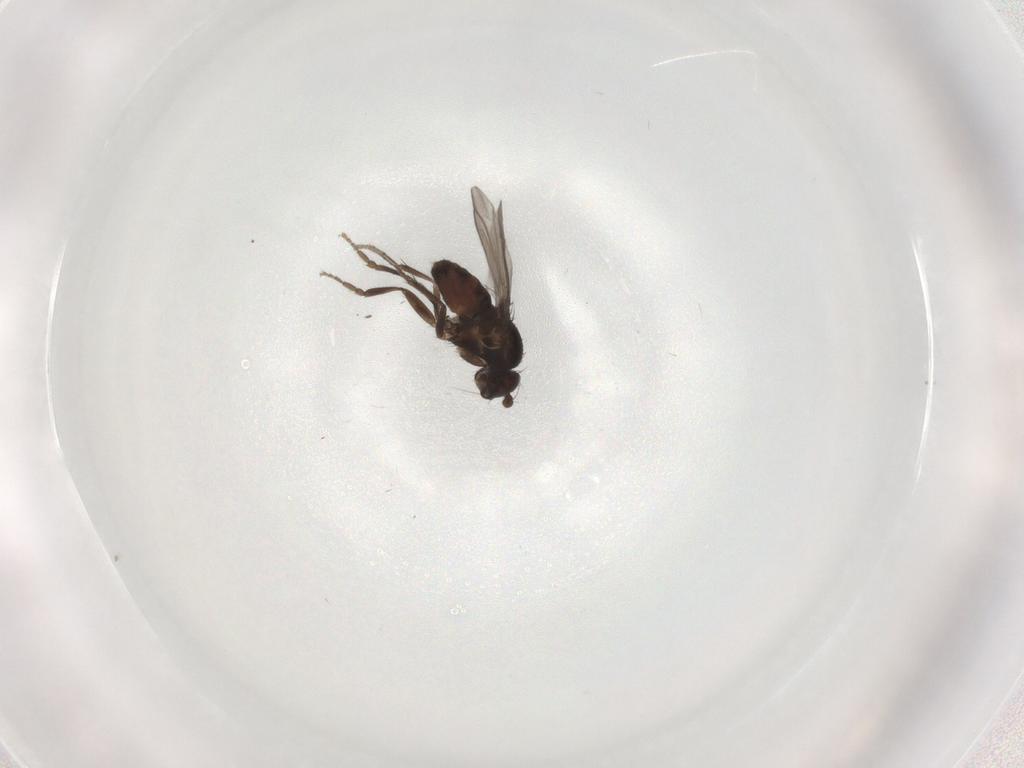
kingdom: Animalia
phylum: Arthropoda
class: Insecta
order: Diptera
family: Sphaeroceridae
